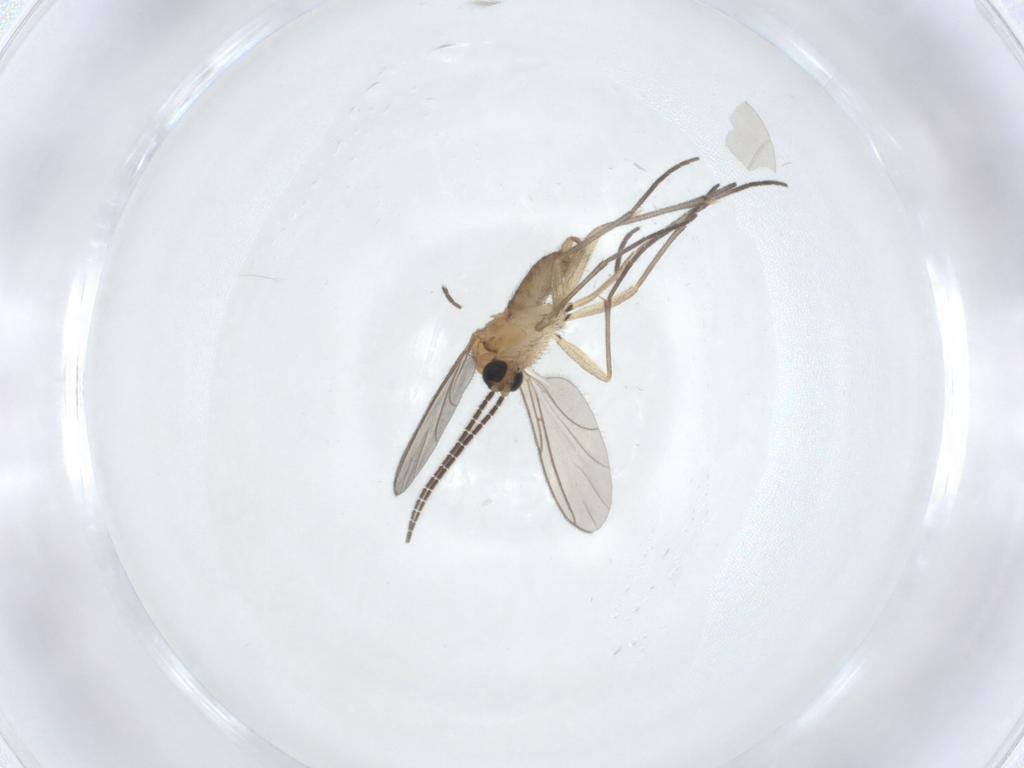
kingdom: Animalia
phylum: Arthropoda
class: Insecta
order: Diptera
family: Sciaridae
